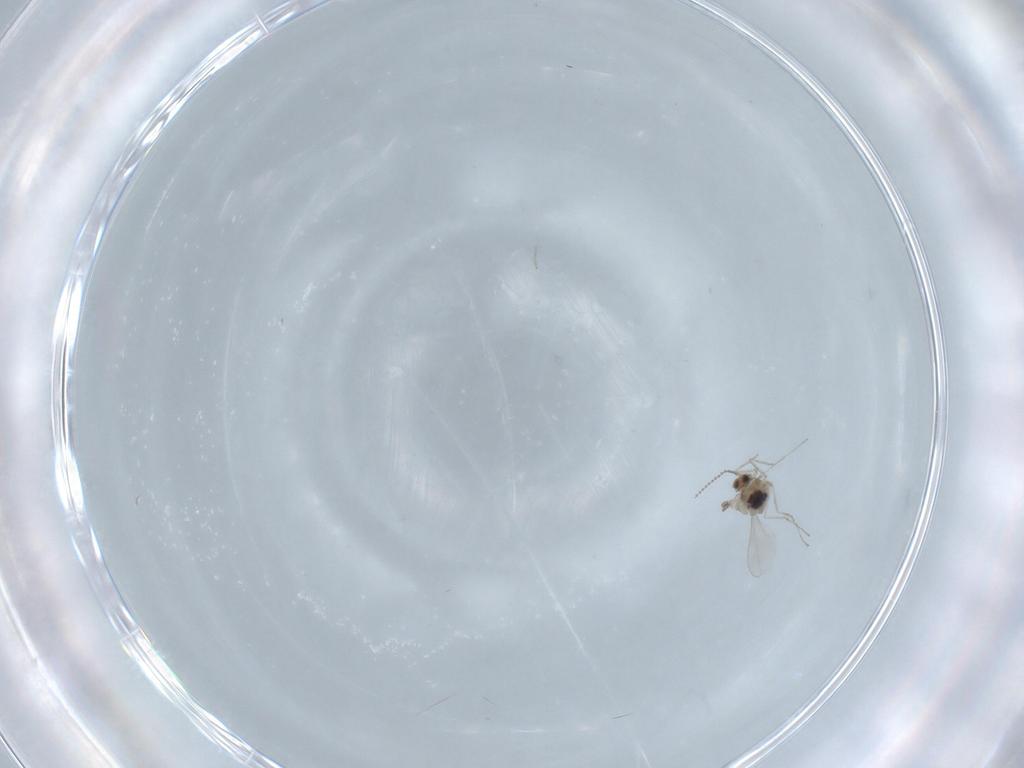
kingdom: Animalia
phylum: Arthropoda
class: Insecta
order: Diptera
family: Cecidomyiidae
